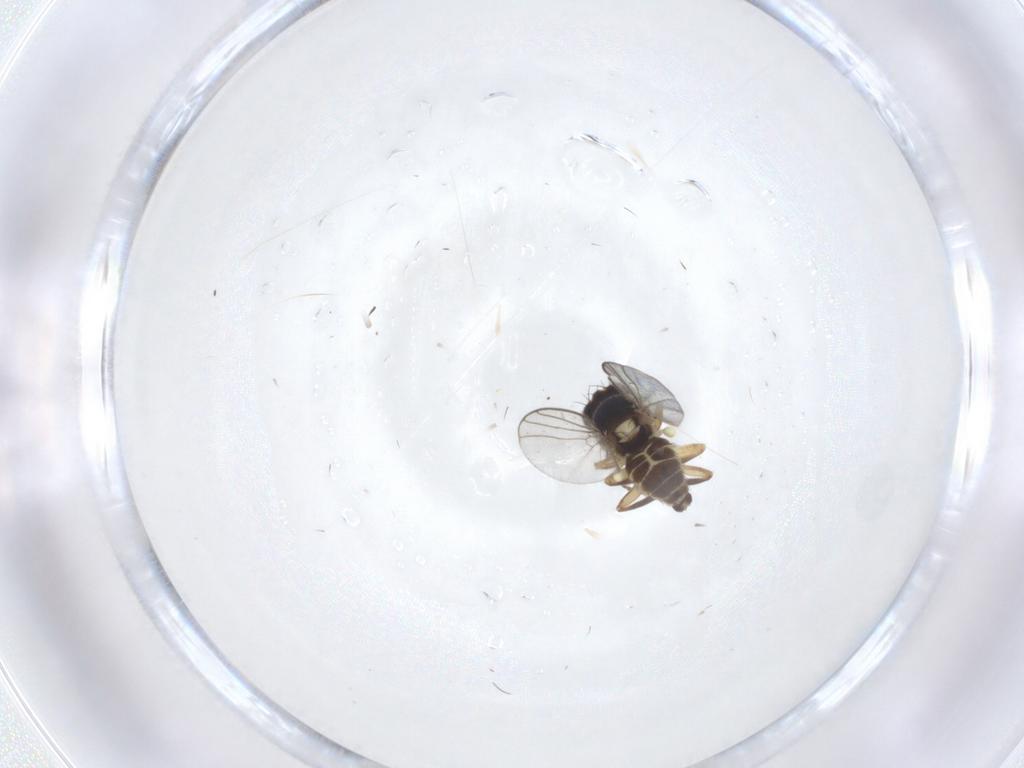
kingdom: Animalia
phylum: Arthropoda
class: Insecta
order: Diptera
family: Agromyzidae
